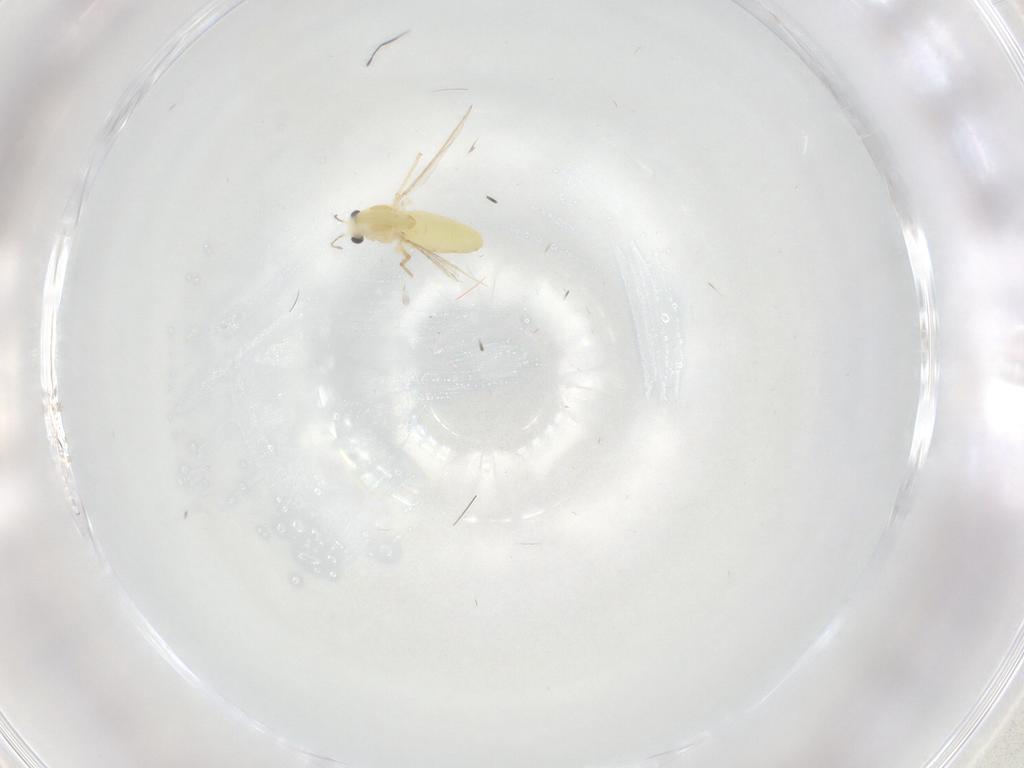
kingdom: Animalia
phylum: Arthropoda
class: Insecta
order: Diptera
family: Chironomidae
